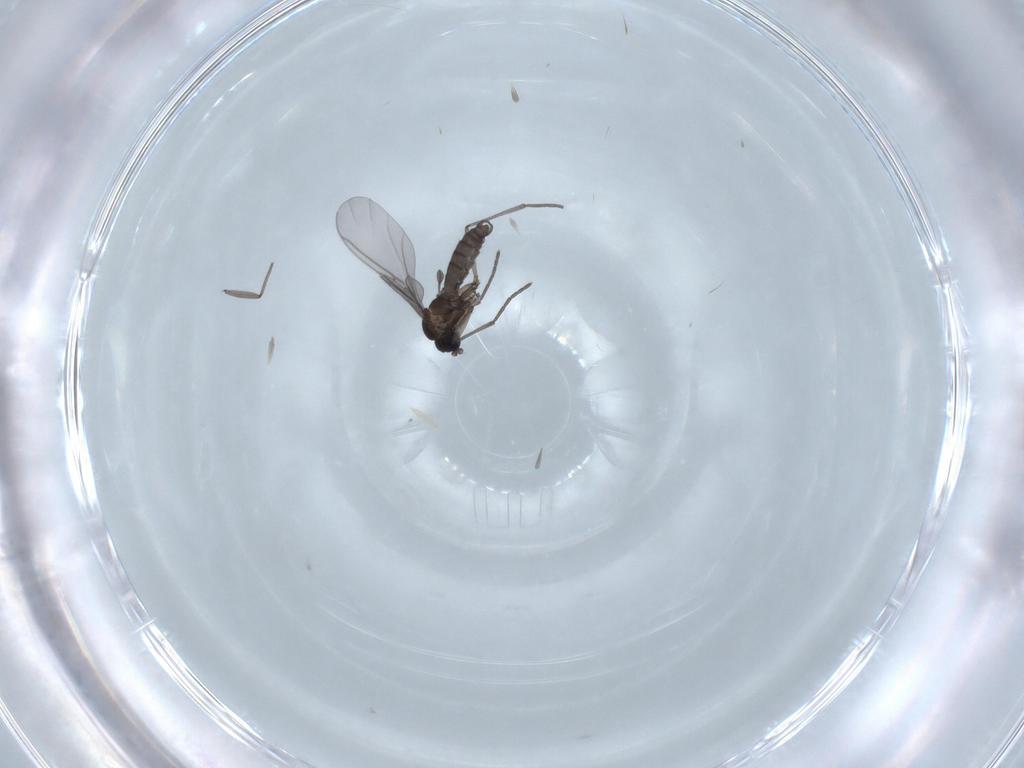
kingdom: Animalia
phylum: Arthropoda
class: Insecta
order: Diptera
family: Sciaridae
